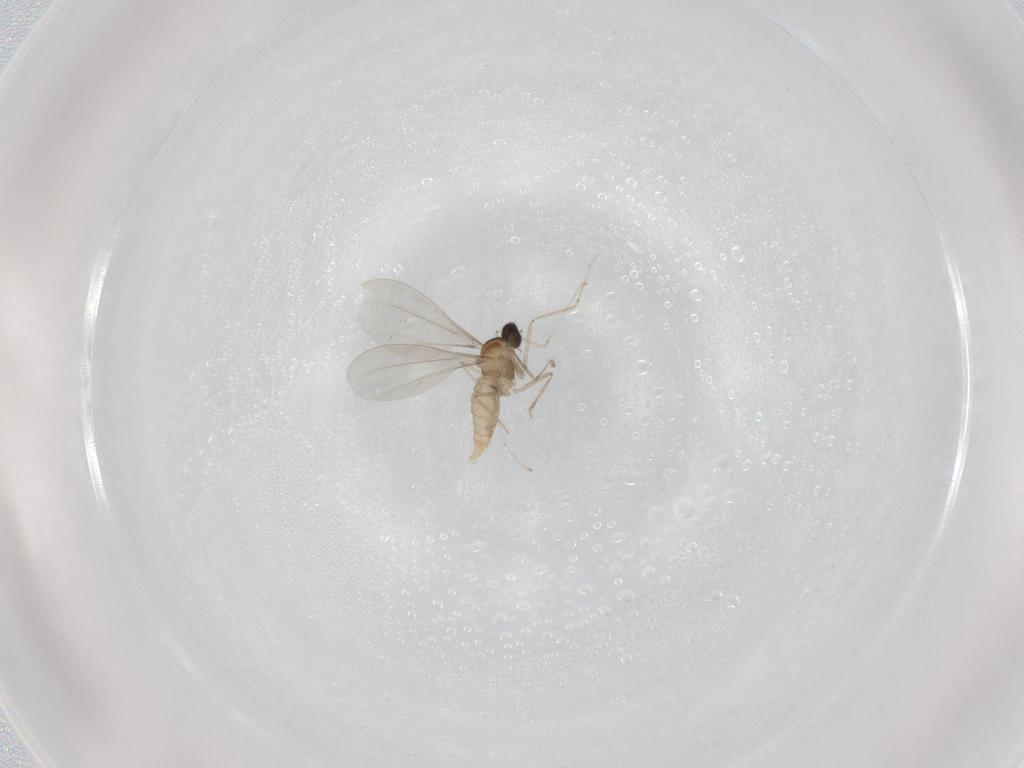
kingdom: Animalia
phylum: Arthropoda
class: Insecta
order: Diptera
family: Cecidomyiidae
